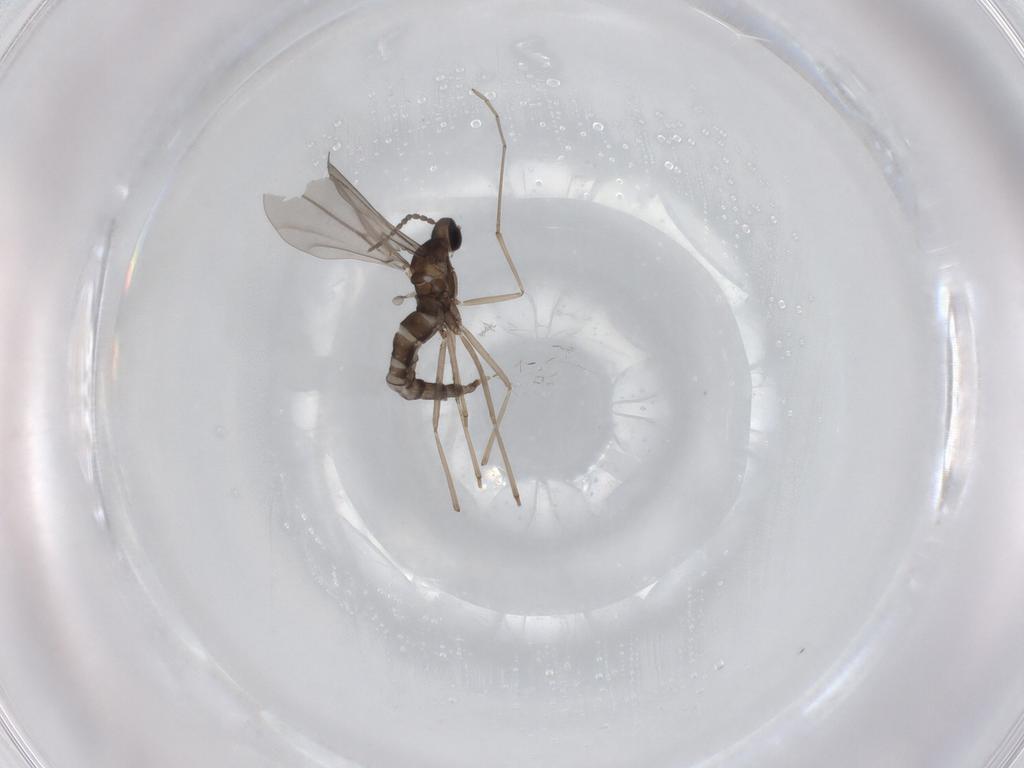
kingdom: Animalia
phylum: Arthropoda
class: Insecta
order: Diptera
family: Cecidomyiidae
